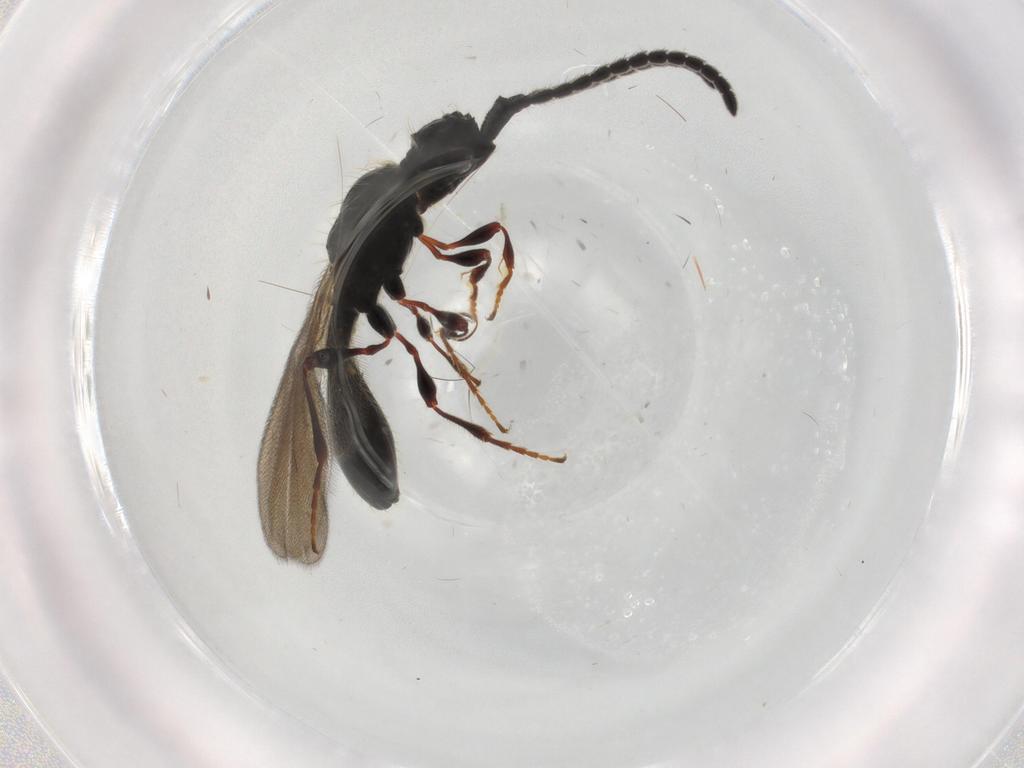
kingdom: Animalia
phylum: Arthropoda
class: Insecta
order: Hymenoptera
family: Diapriidae
